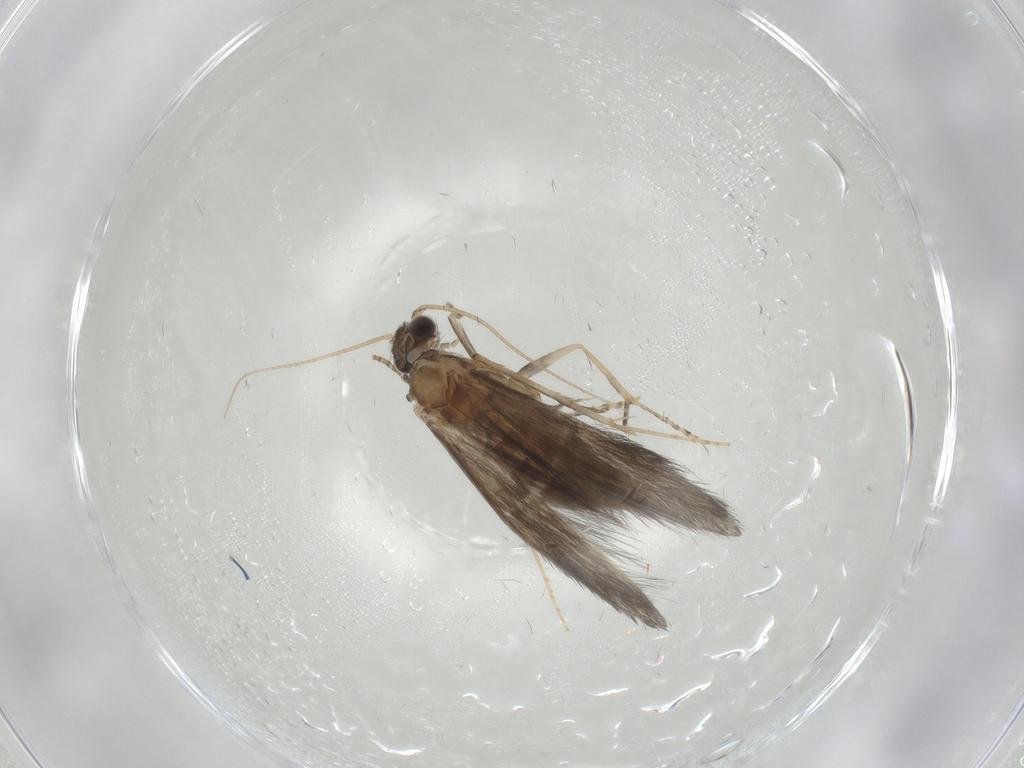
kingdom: Animalia
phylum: Arthropoda
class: Insecta
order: Trichoptera
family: Hydroptilidae
